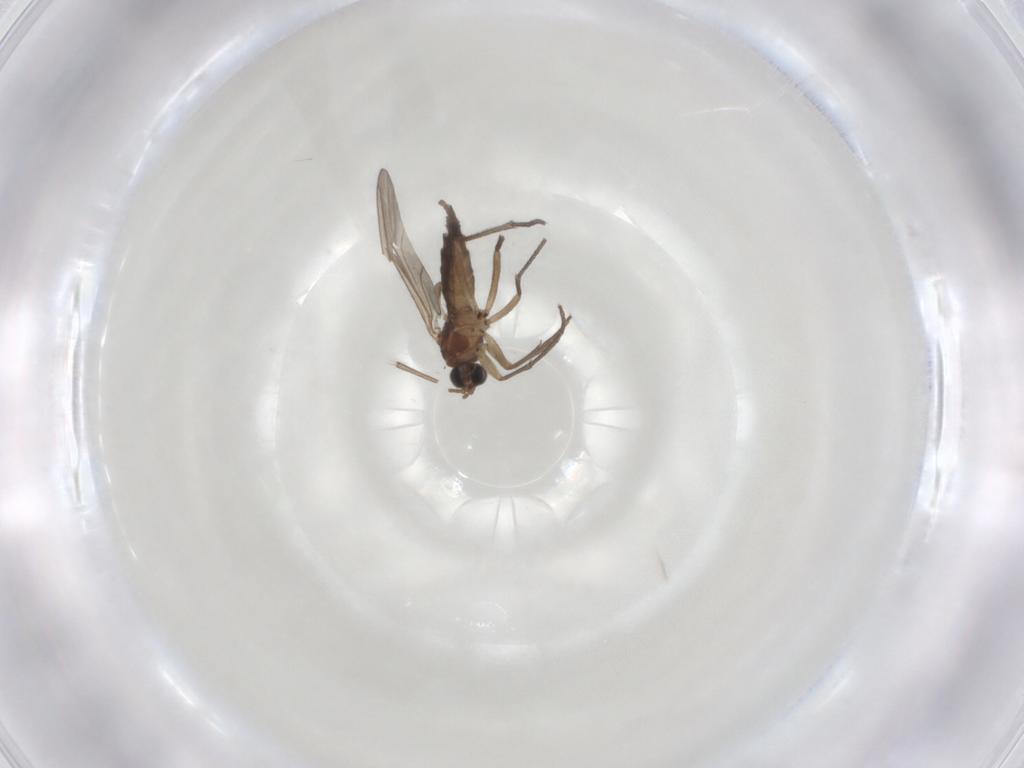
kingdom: Animalia
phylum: Arthropoda
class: Insecta
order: Diptera
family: Sciaridae
